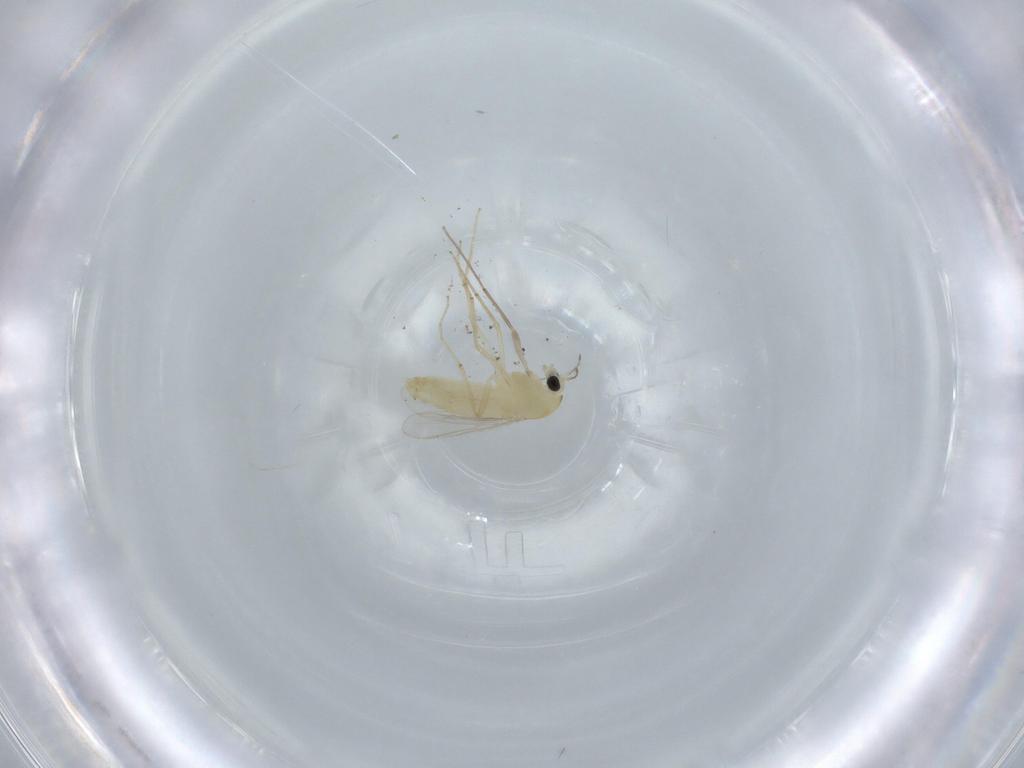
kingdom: Animalia
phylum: Arthropoda
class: Insecta
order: Diptera
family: Chironomidae
